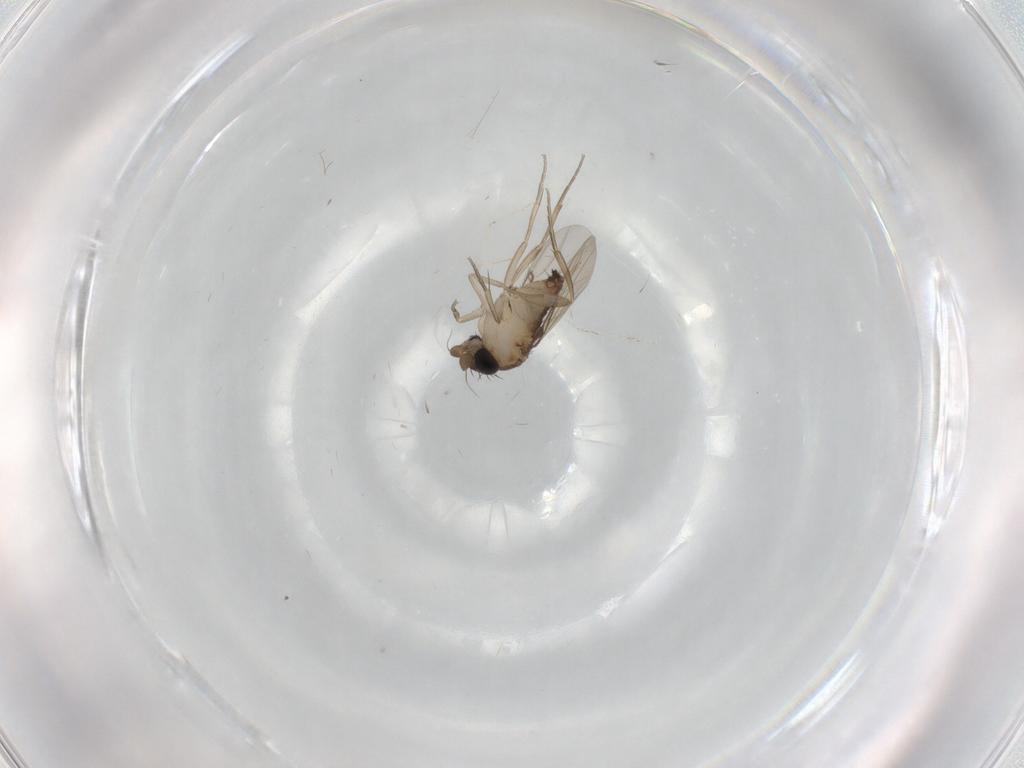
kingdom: Animalia
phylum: Arthropoda
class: Insecta
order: Diptera
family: Cecidomyiidae
